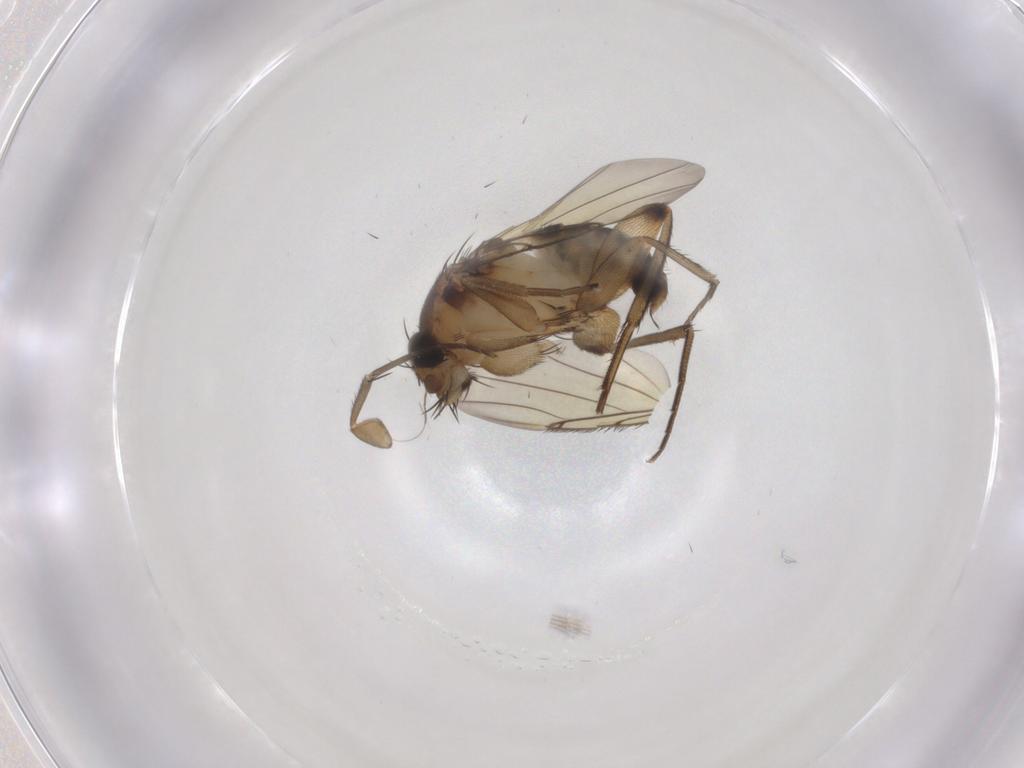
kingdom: Animalia
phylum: Arthropoda
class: Insecta
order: Diptera
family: Phoridae
